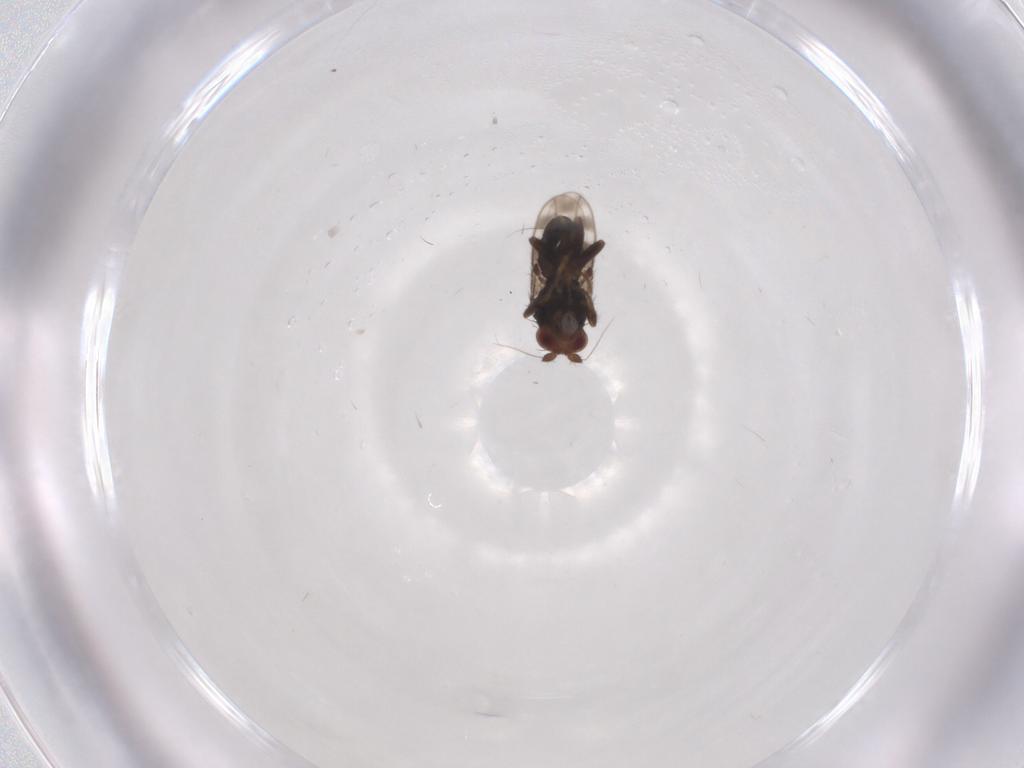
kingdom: Animalia
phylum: Arthropoda
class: Insecta
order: Diptera
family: Sphaeroceridae
